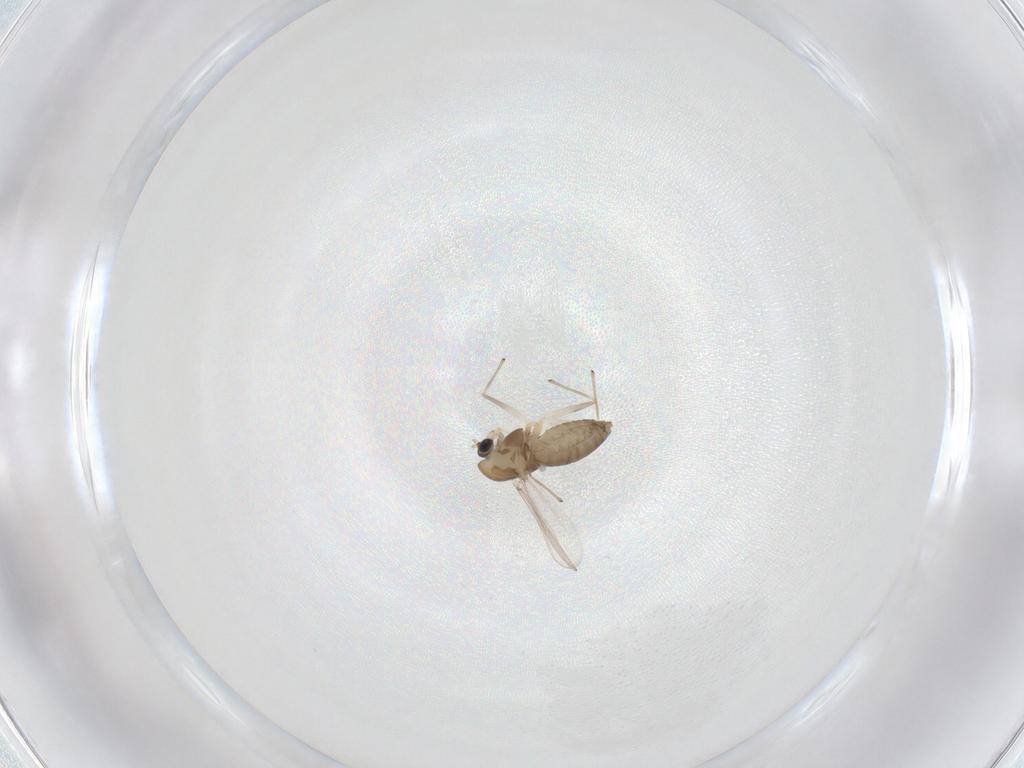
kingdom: Animalia
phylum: Arthropoda
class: Insecta
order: Diptera
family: Chironomidae
